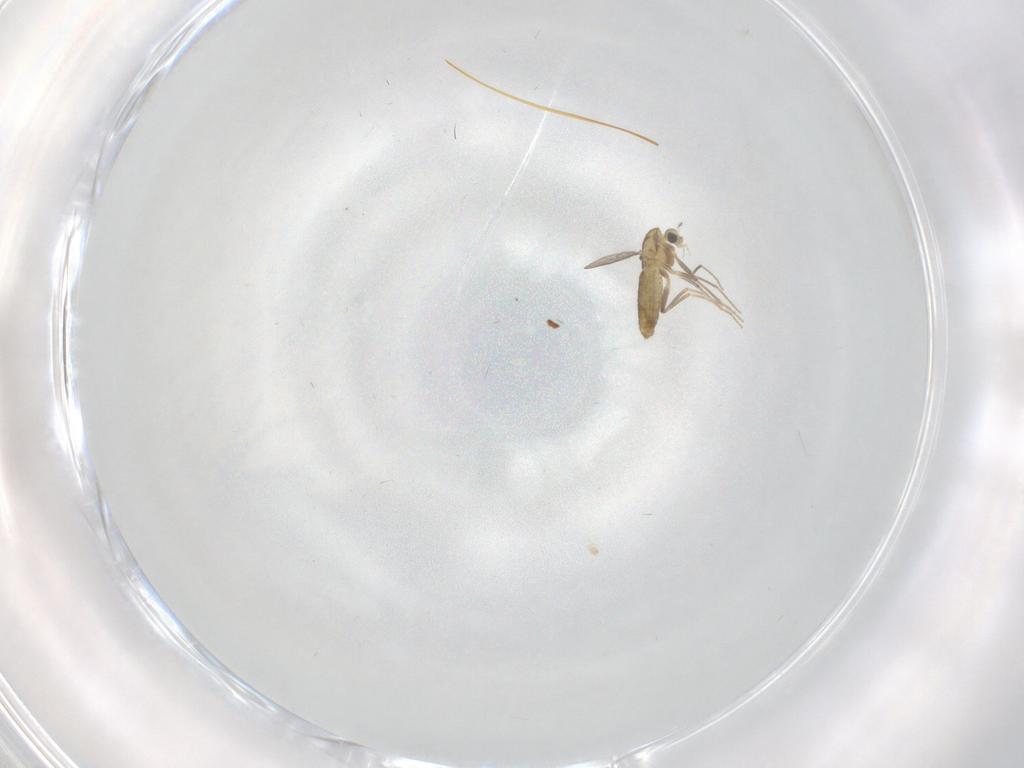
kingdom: Animalia
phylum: Arthropoda
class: Insecta
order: Diptera
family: Chironomidae
